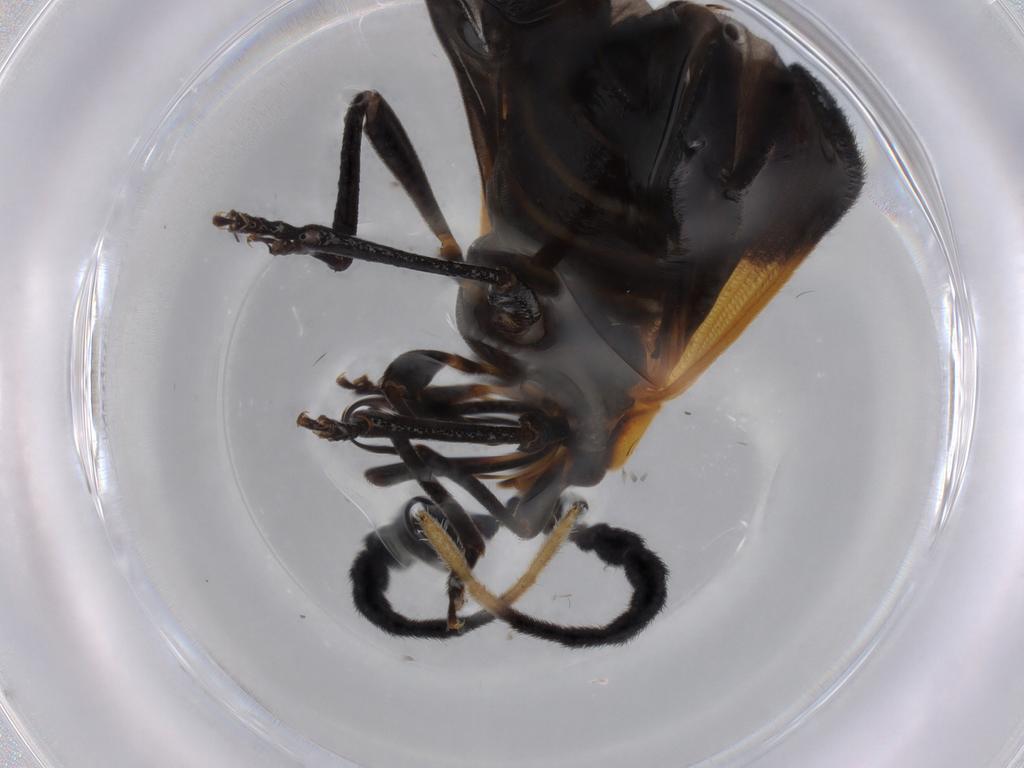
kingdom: Animalia
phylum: Arthropoda
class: Insecta
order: Coleoptera
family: Lycidae
